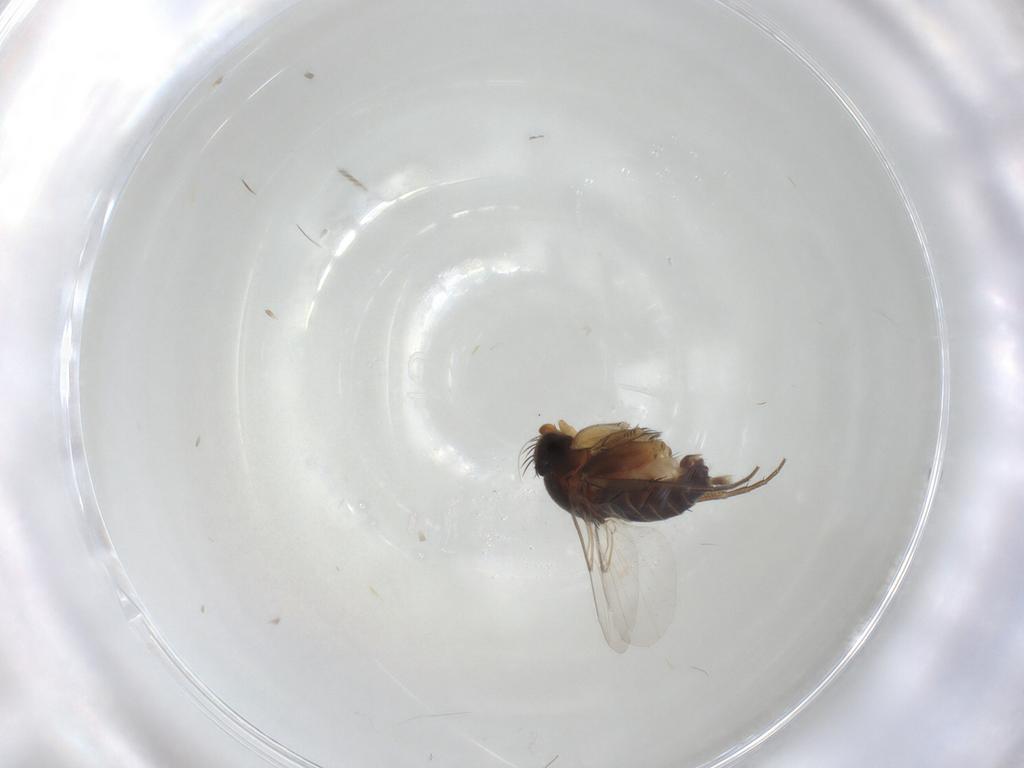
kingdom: Animalia
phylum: Arthropoda
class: Insecta
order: Diptera
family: Phoridae
